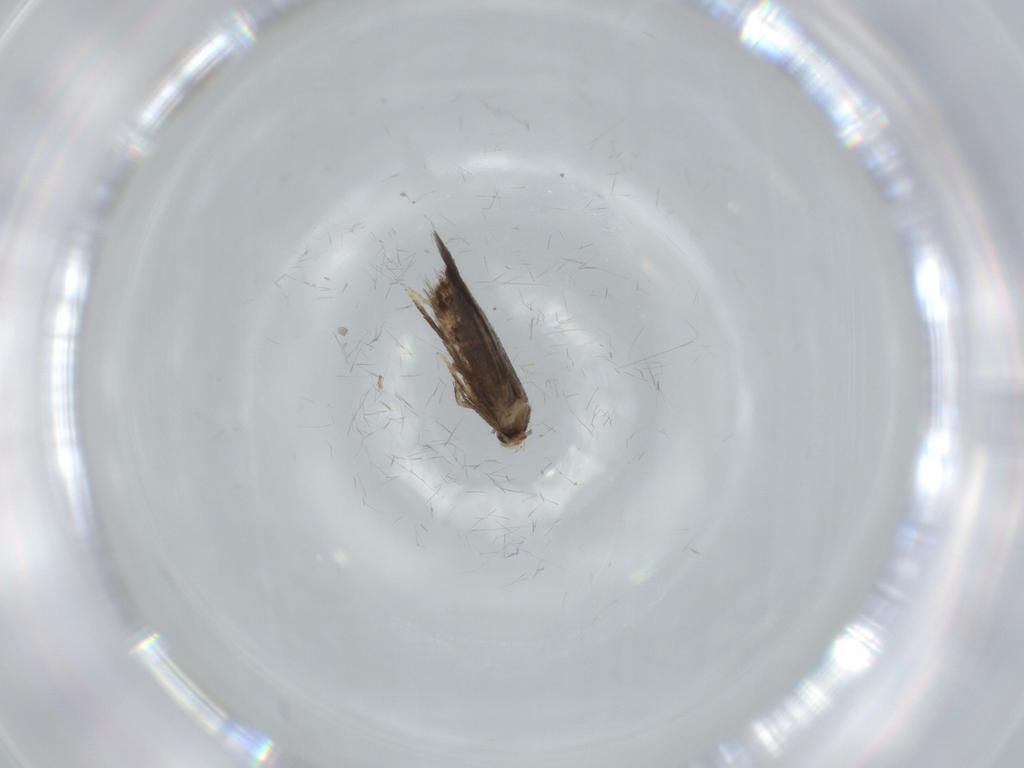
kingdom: Animalia
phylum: Arthropoda
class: Insecta
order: Lepidoptera
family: Nepticulidae
